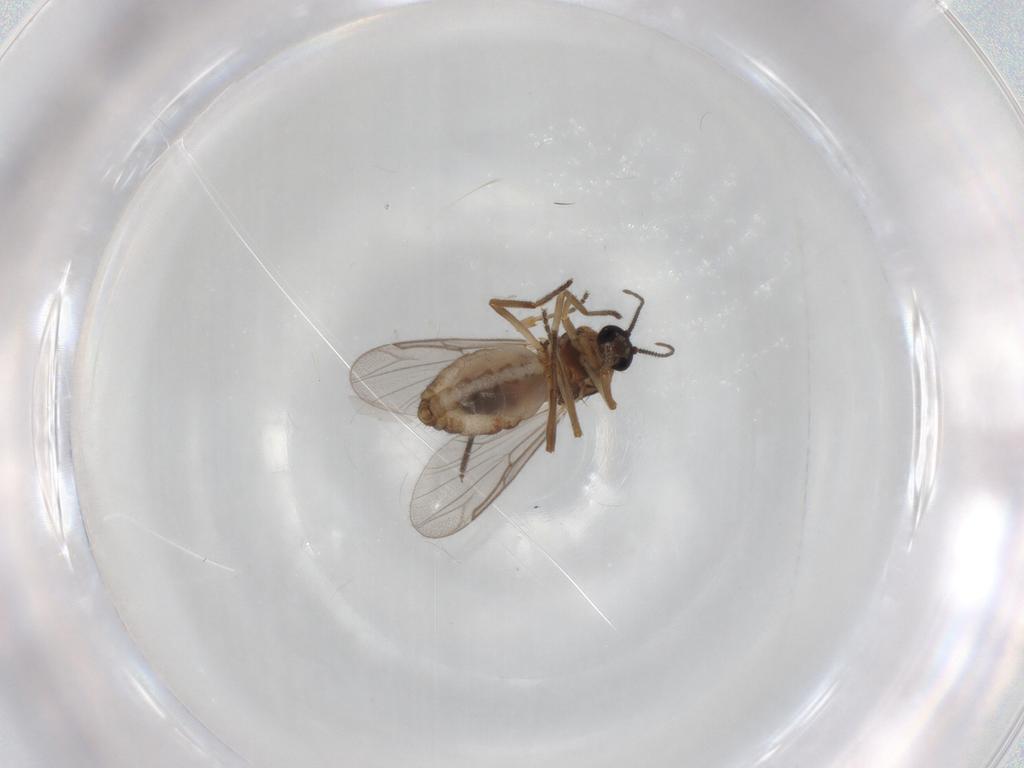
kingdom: Animalia
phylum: Arthropoda
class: Insecta
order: Diptera
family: Ceratopogonidae
